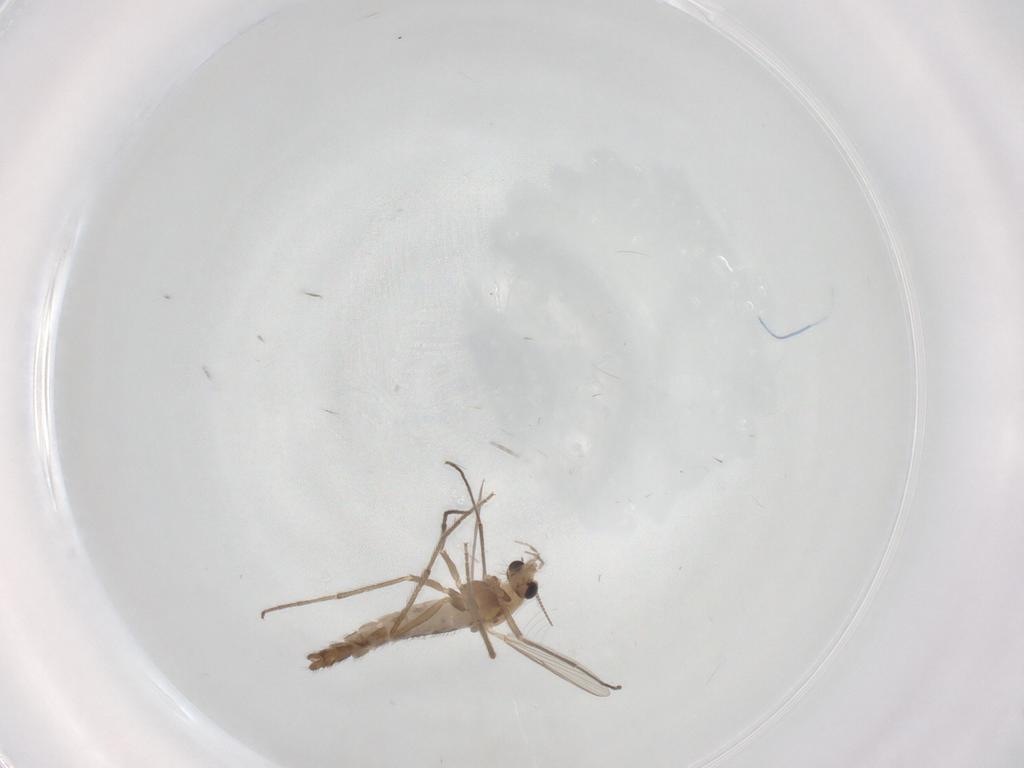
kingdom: Animalia
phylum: Arthropoda
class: Insecta
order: Diptera
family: Chironomidae
